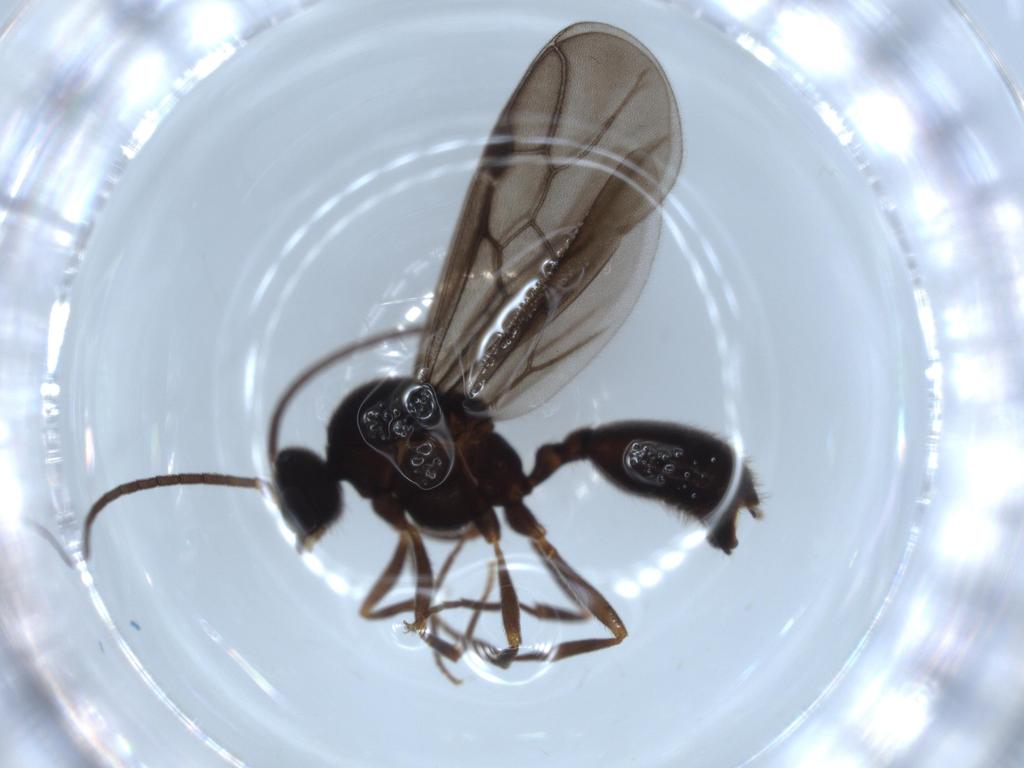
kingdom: Animalia
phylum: Arthropoda
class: Insecta
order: Hymenoptera
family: Formicidae
